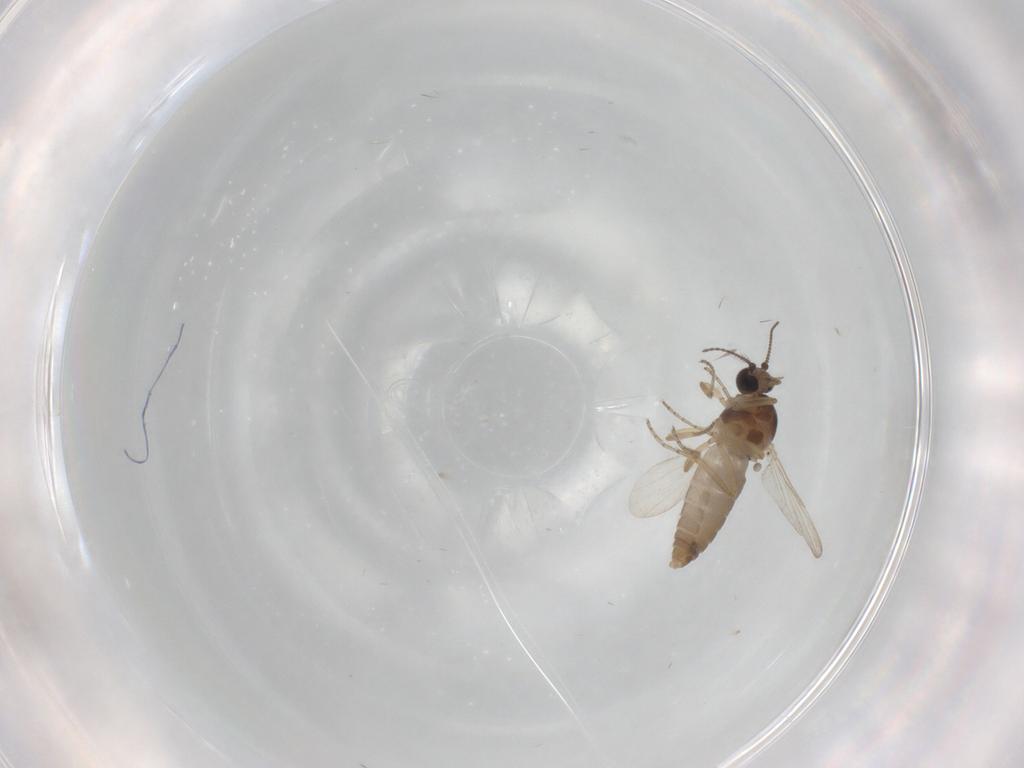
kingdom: Animalia
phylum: Arthropoda
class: Insecta
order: Diptera
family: Ceratopogonidae
